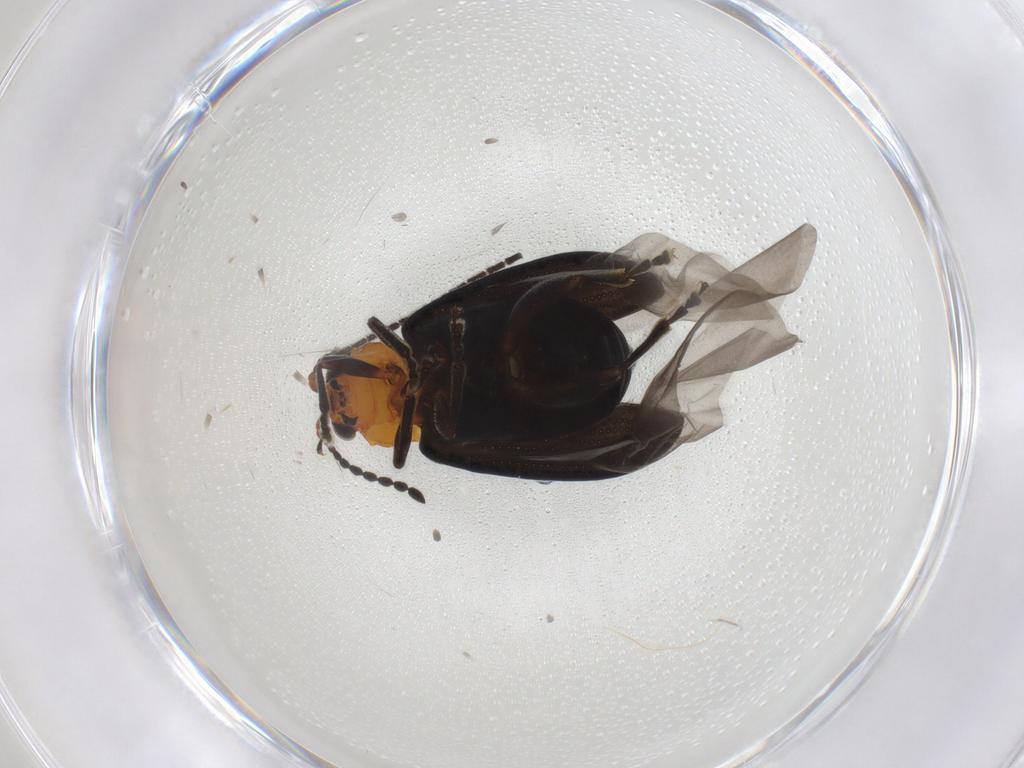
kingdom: Animalia
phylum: Arthropoda
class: Insecta
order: Coleoptera
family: Chrysomelidae
